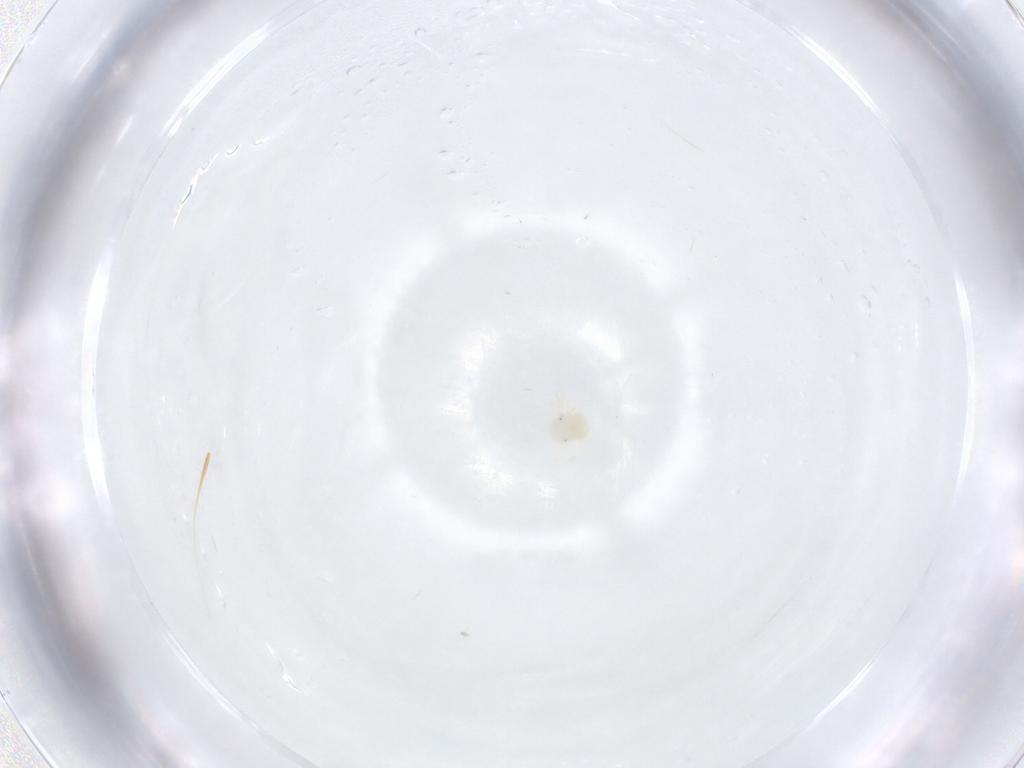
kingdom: Animalia
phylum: Arthropoda
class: Arachnida
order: Trombidiformes
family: Anystidae
